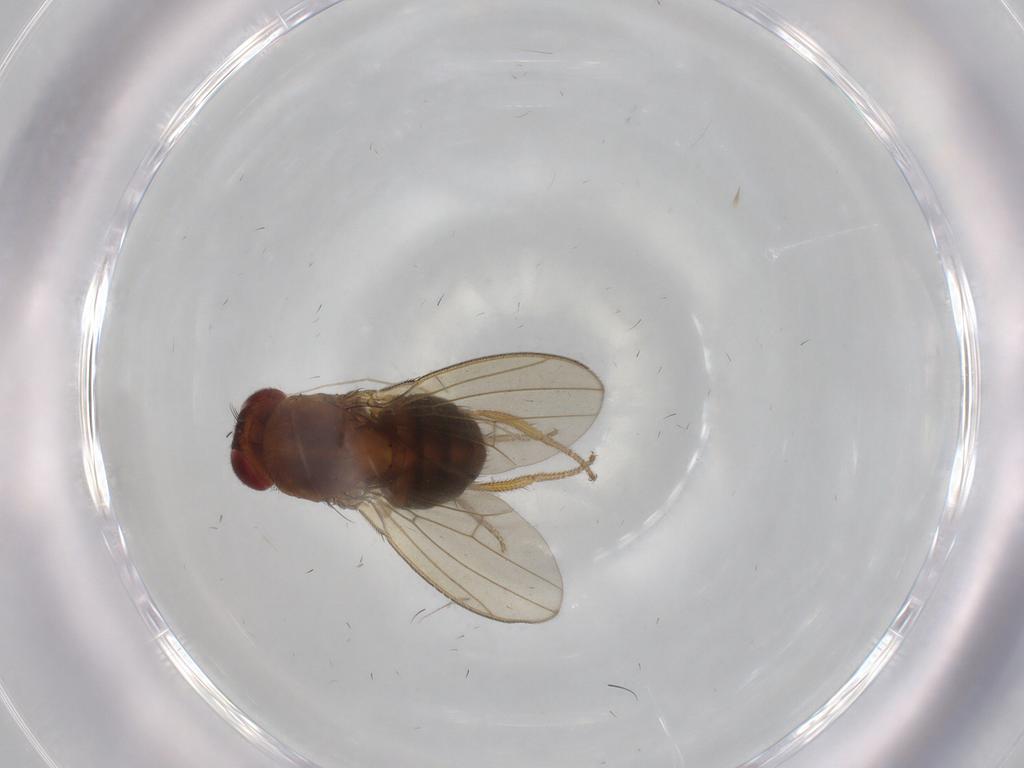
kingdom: Animalia
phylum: Arthropoda
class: Insecta
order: Diptera
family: Drosophilidae
